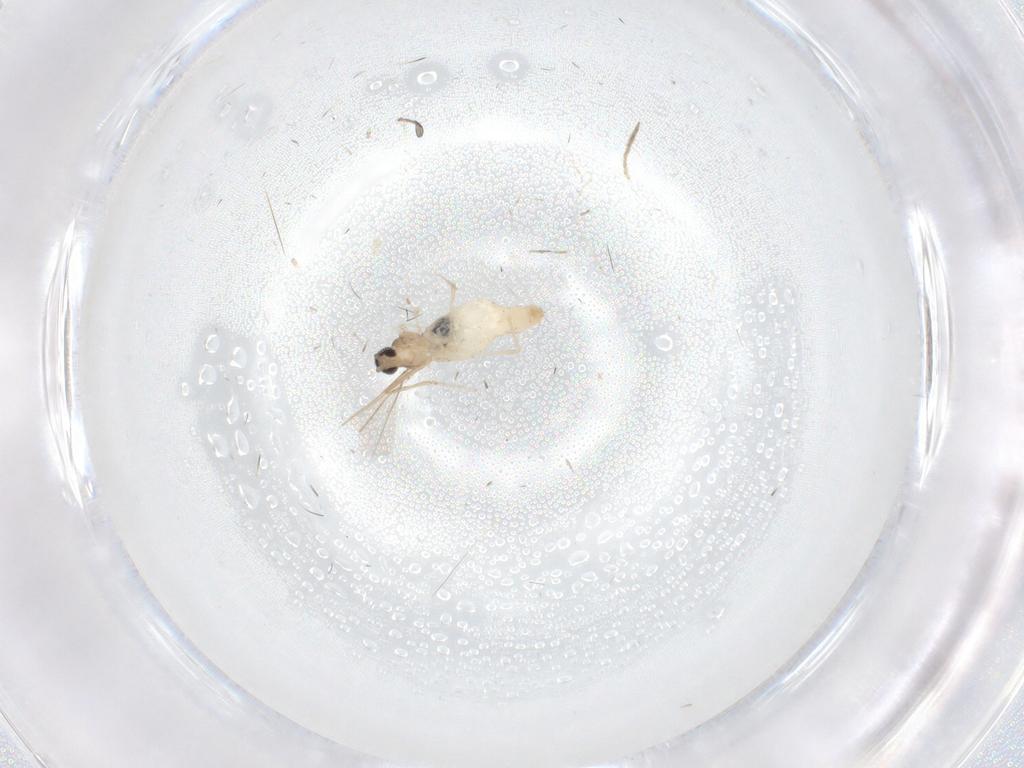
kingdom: Animalia
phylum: Arthropoda
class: Insecta
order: Diptera
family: Cecidomyiidae
